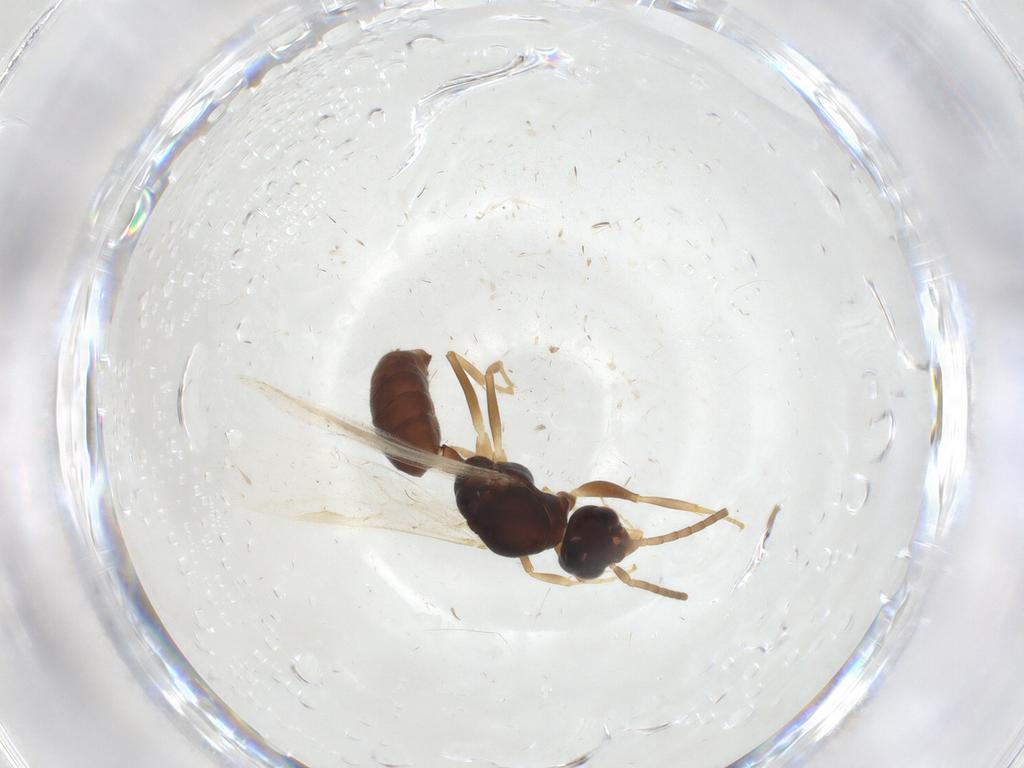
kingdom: Animalia
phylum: Arthropoda
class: Insecta
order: Hymenoptera
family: Formicidae
